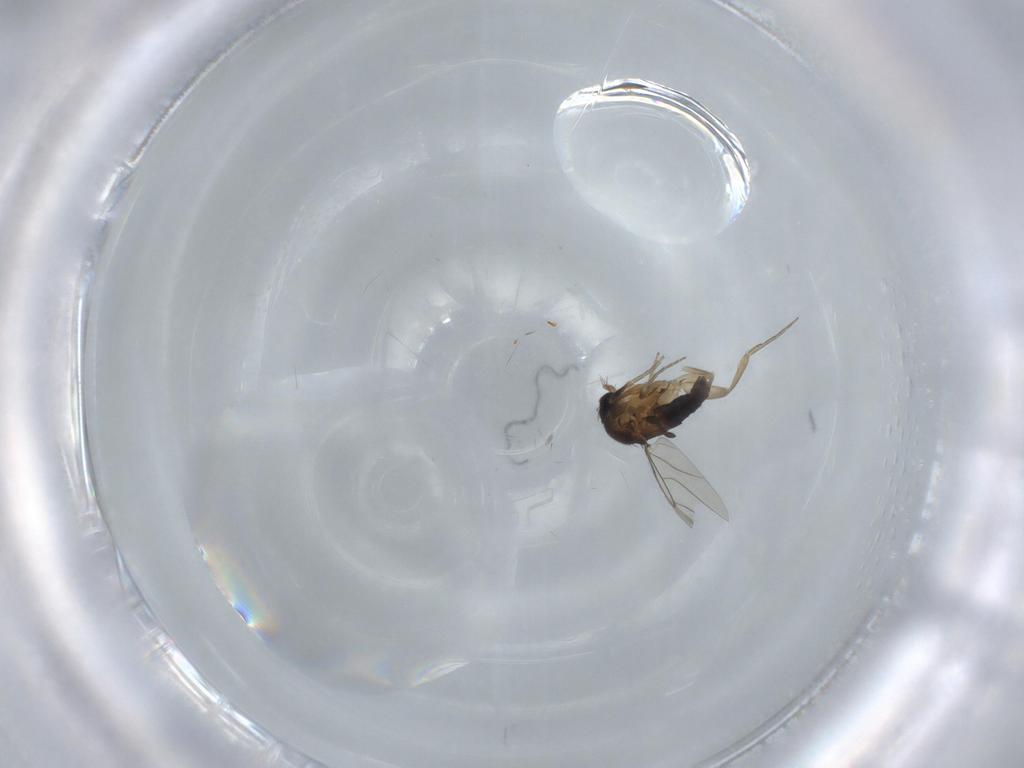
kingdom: Animalia
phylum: Arthropoda
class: Insecta
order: Diptera
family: Phoridae
